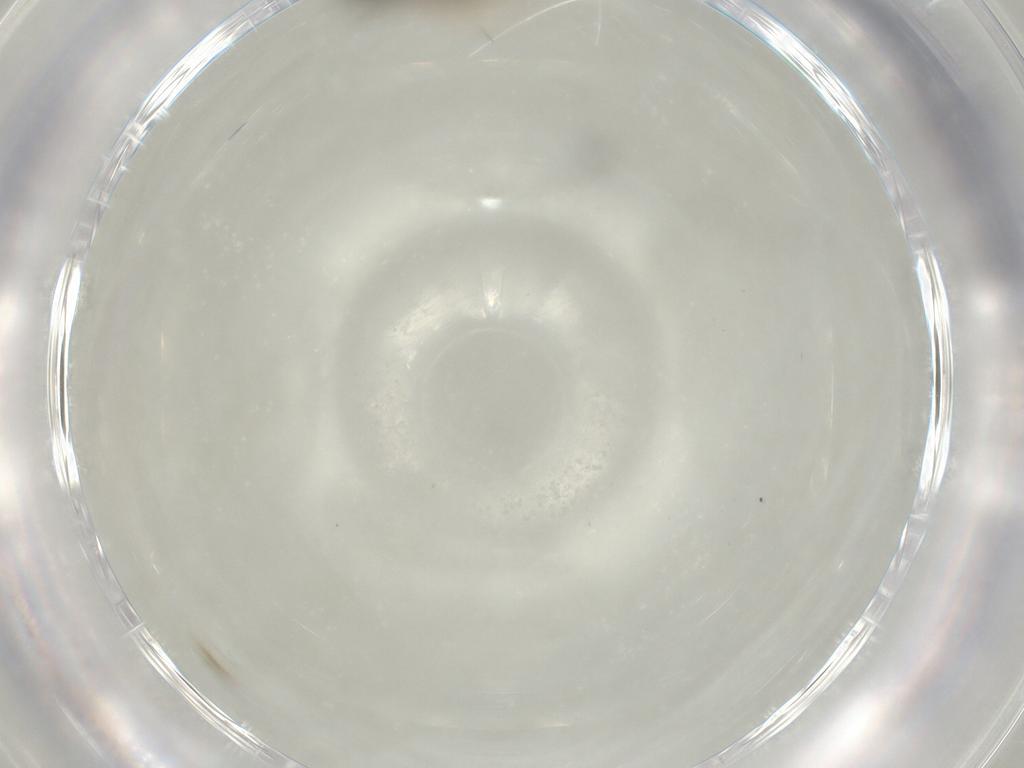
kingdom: Animalia
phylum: Arthropoda
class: Insecta
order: Hymenoptera
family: Scelionidae
